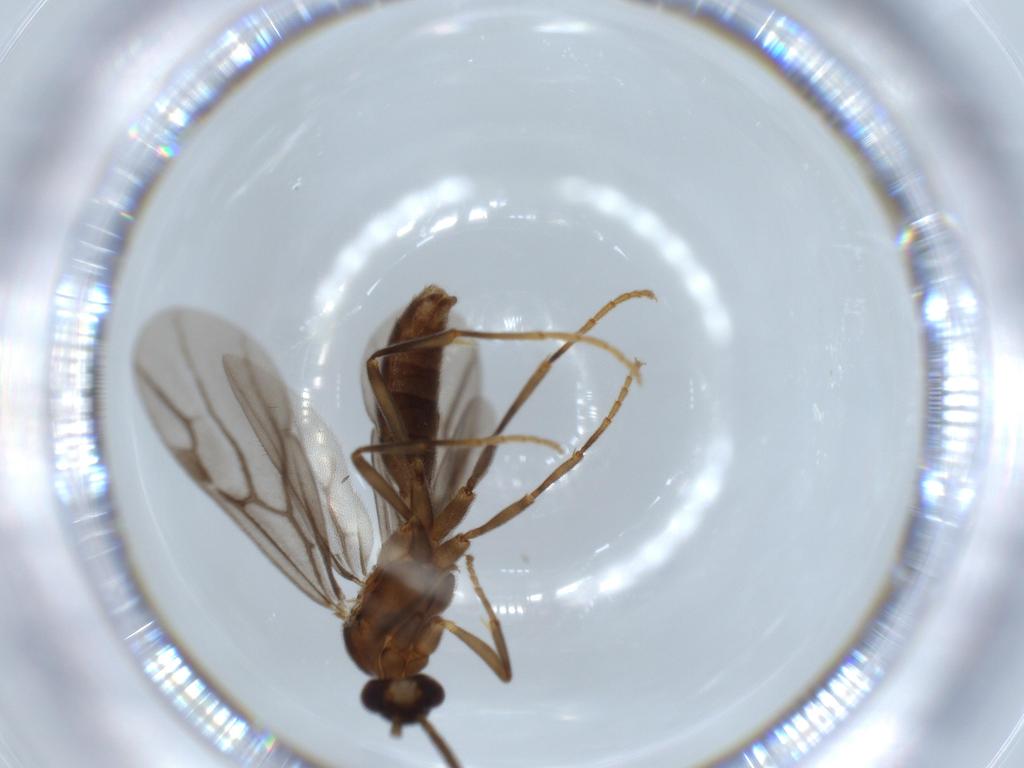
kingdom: Animalia
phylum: Arthropoda
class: Insecta
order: Hymenoptera
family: Formicidae
